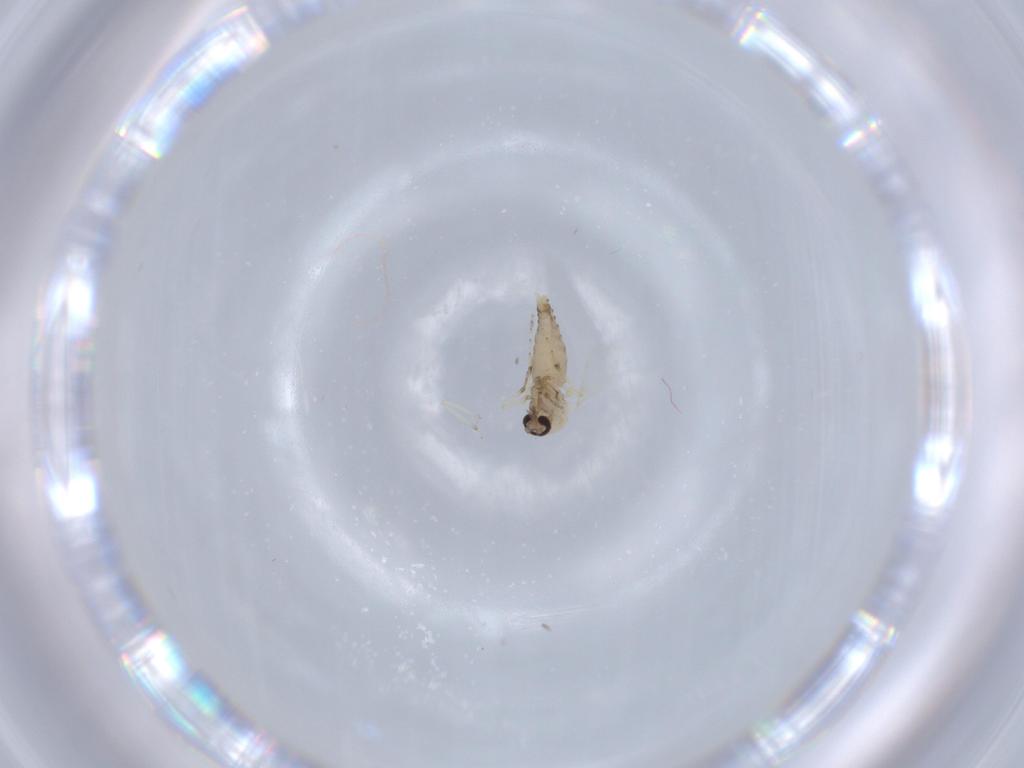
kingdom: Animalia
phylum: Arthropoda
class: Insecta
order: Diptera
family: Ceratopogonidae
